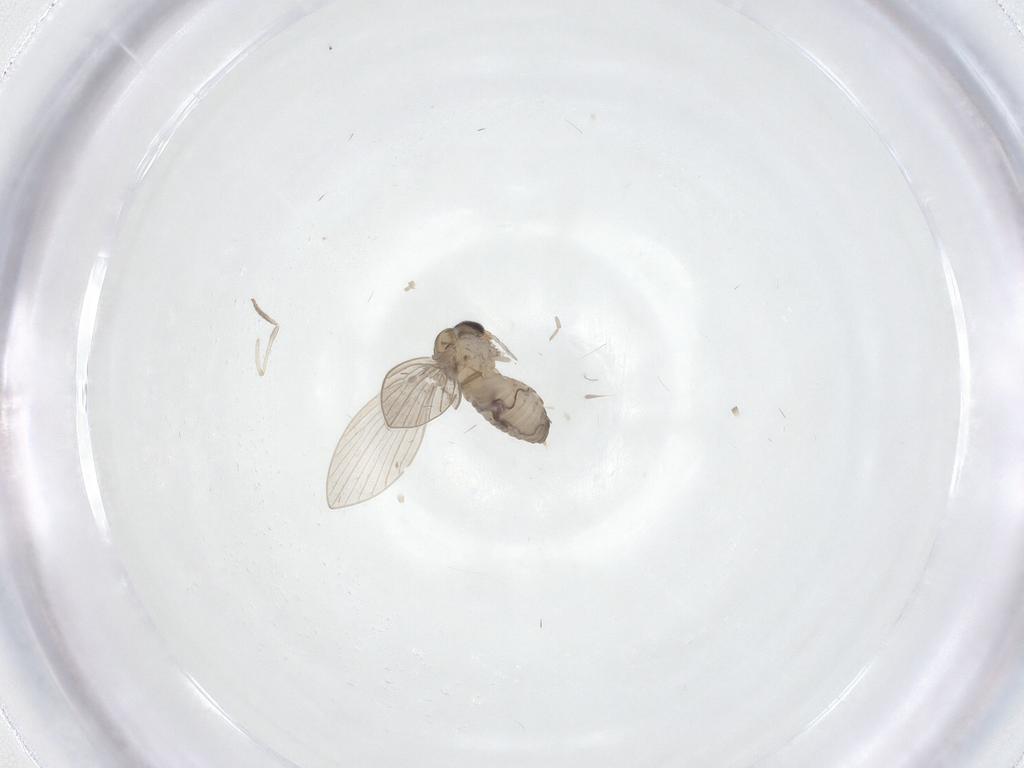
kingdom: Animalia
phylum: Arthropoda
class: Insecta
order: Diptera
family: Psychodidae
